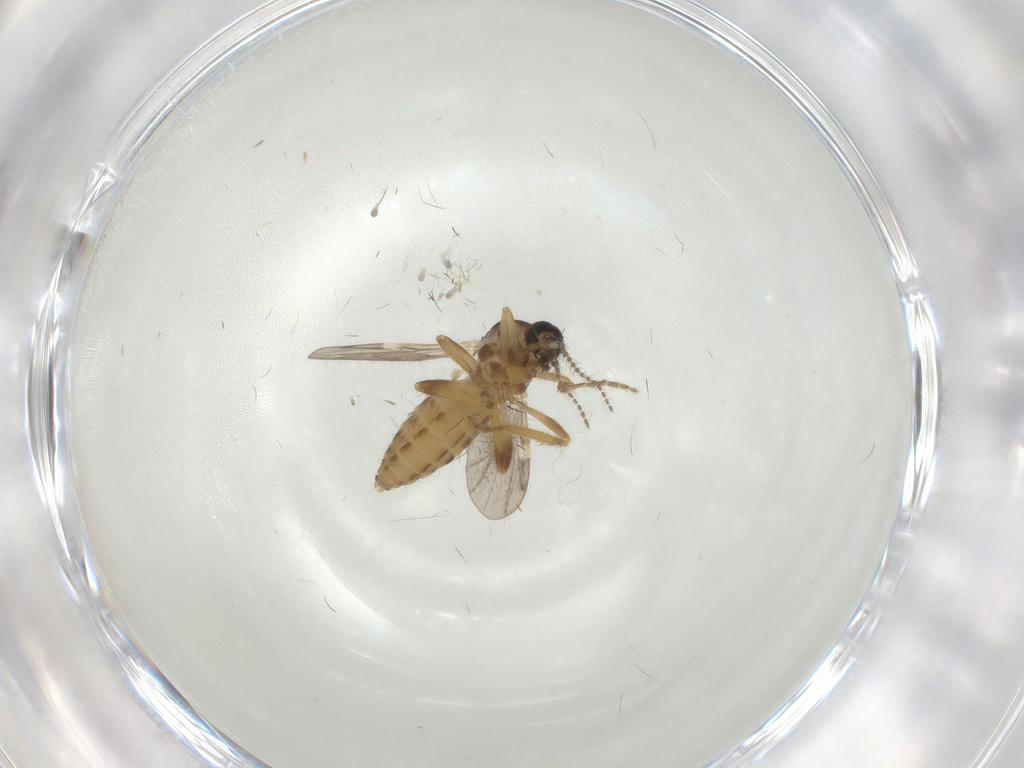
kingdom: Animalia
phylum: Arthropoda
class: Insecta
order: Diptera
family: Ceratopogonidae
